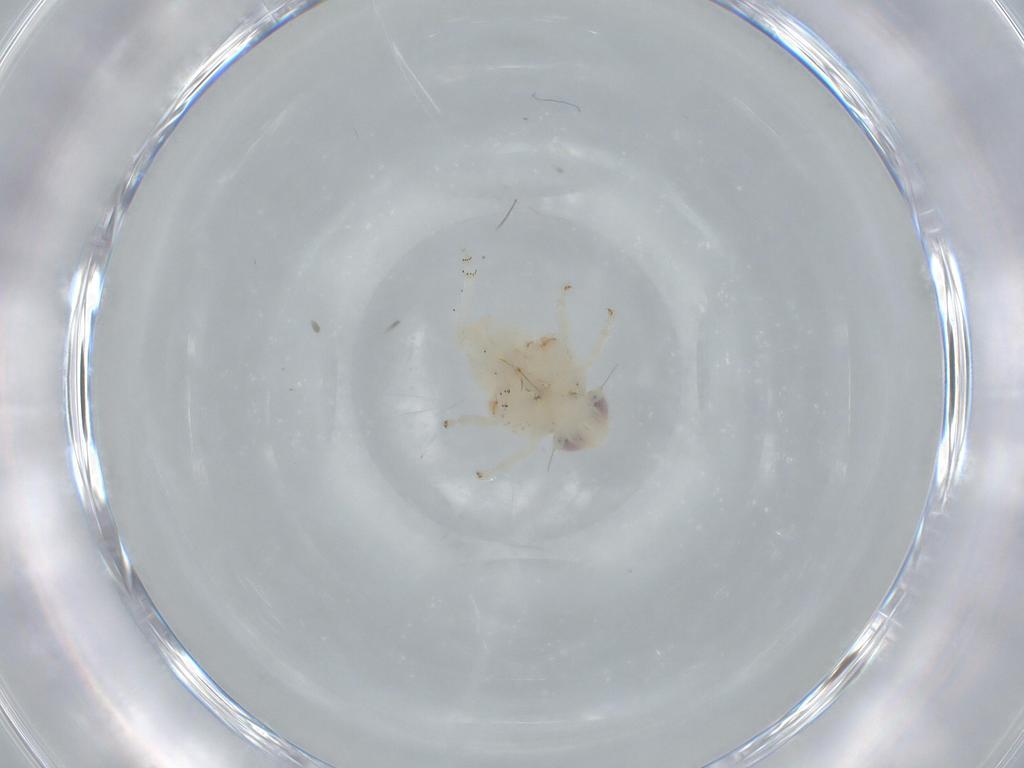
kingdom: Animalia
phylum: Arthropoda
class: Insecta
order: Hemiptera
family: Nogodinidae
